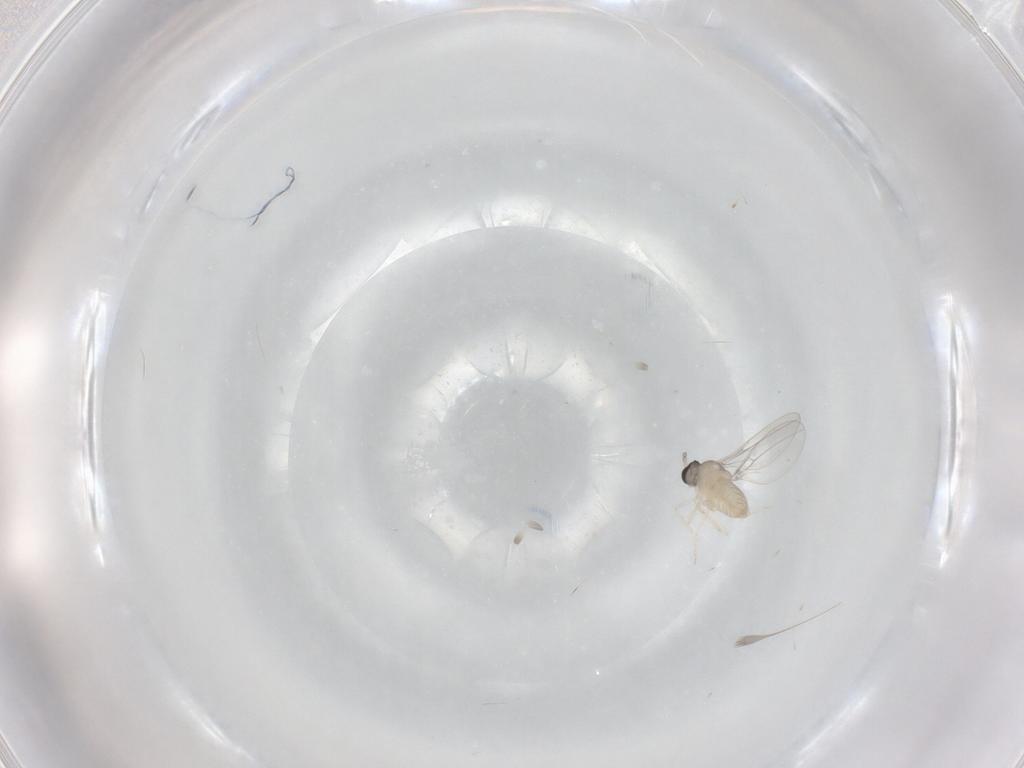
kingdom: Animalia
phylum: Arthropoda
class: Insecta
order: Diptera
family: Cecidomyiidae
